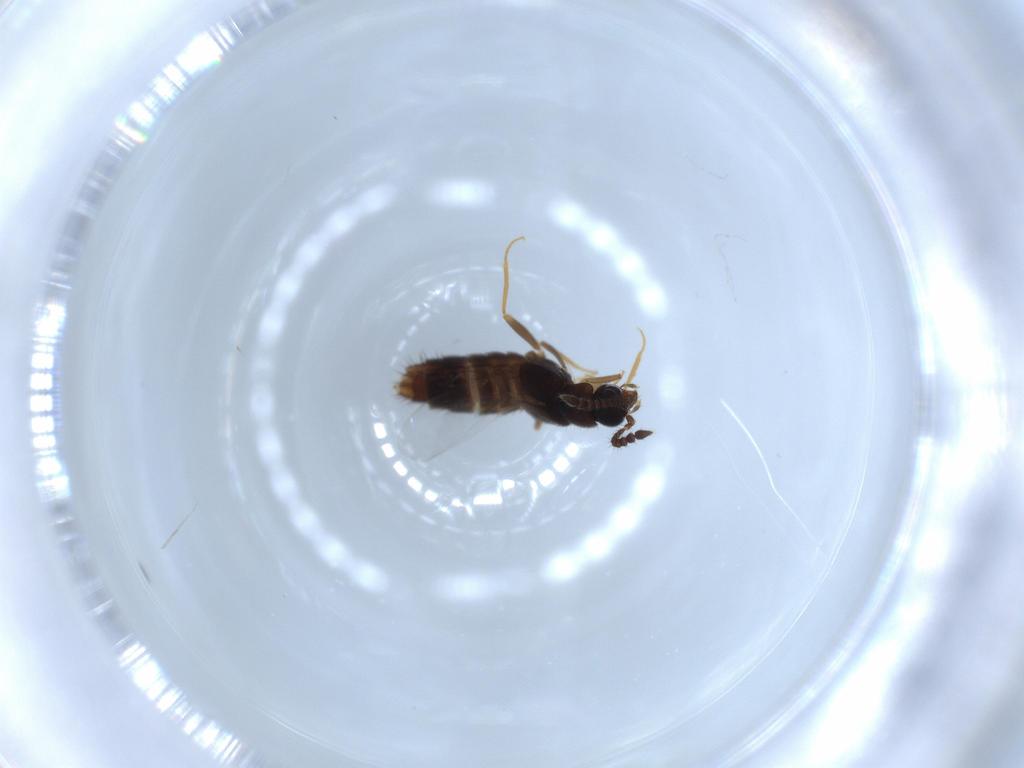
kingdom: Animalia
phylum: Arthropoda
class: Insecta
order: Coleoptera
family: Staphylinidae
